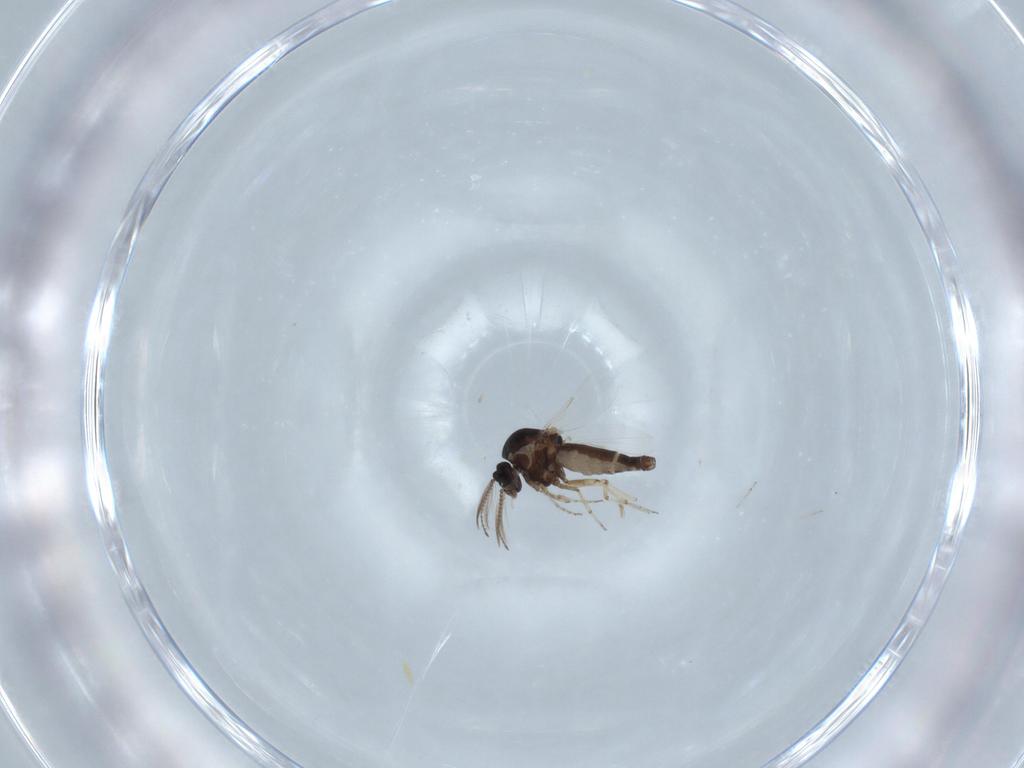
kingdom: Animalia
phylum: Arthropoda
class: Insecta
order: Diptera
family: Ceratopogonidae
